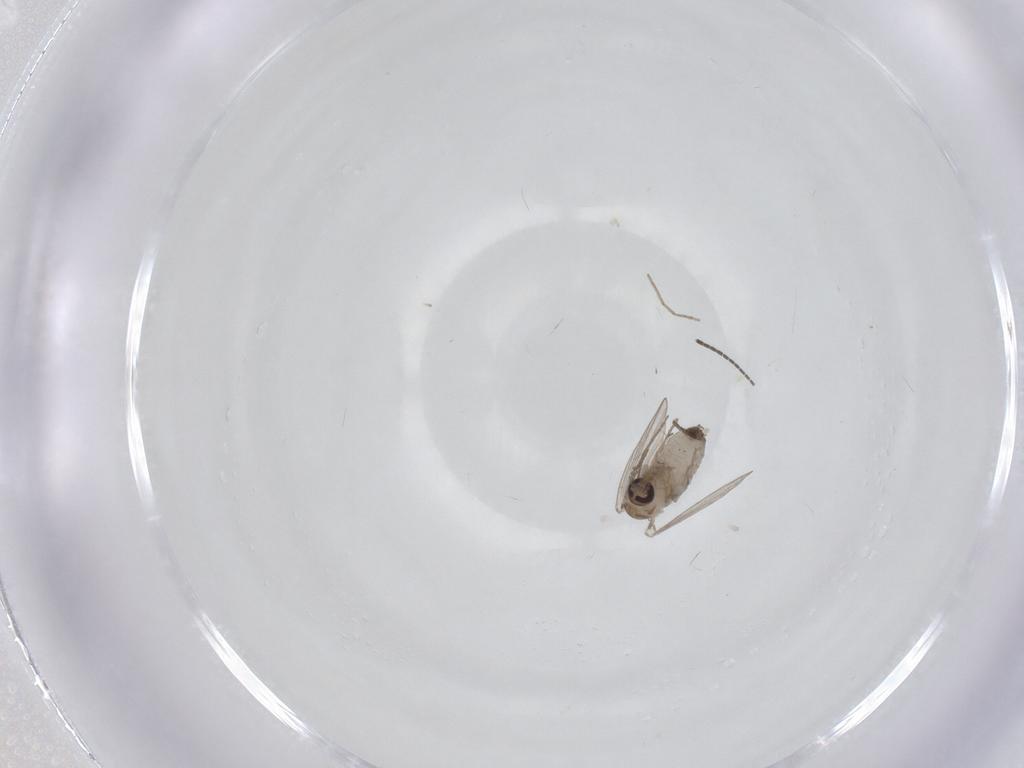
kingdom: Animalia
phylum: Arthropoda
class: Insecta
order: Diptera
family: Psychodidae
